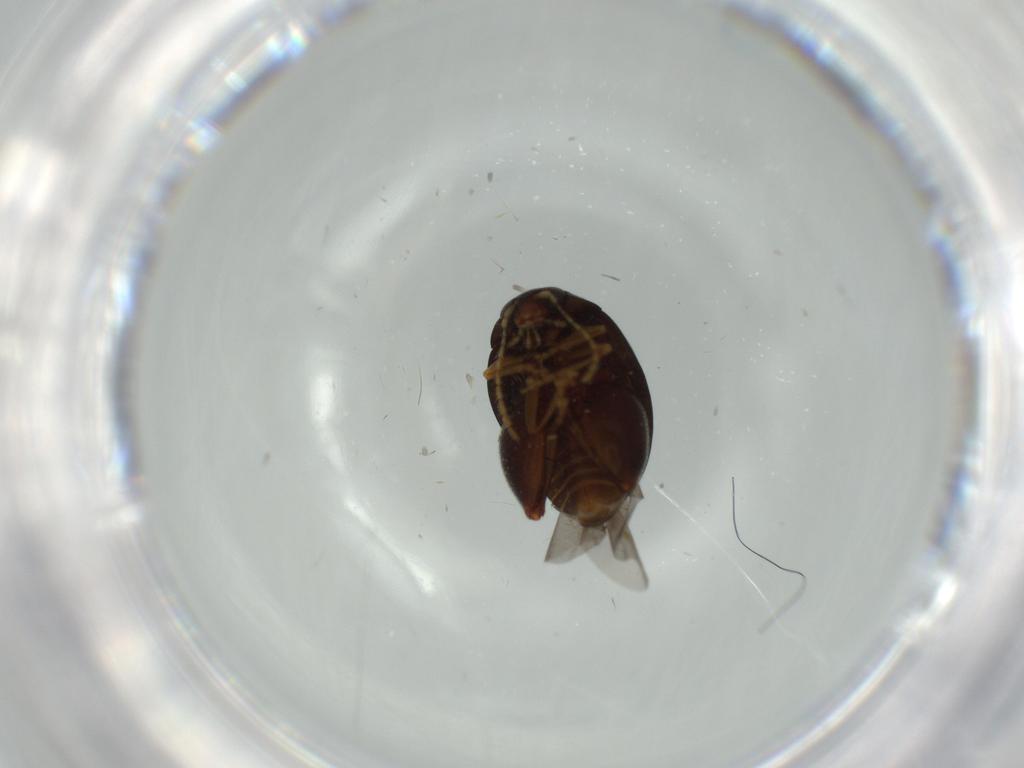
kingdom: Animalia
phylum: Arthropoda
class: Insecta
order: Coleoptera
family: Chrysomelidae
